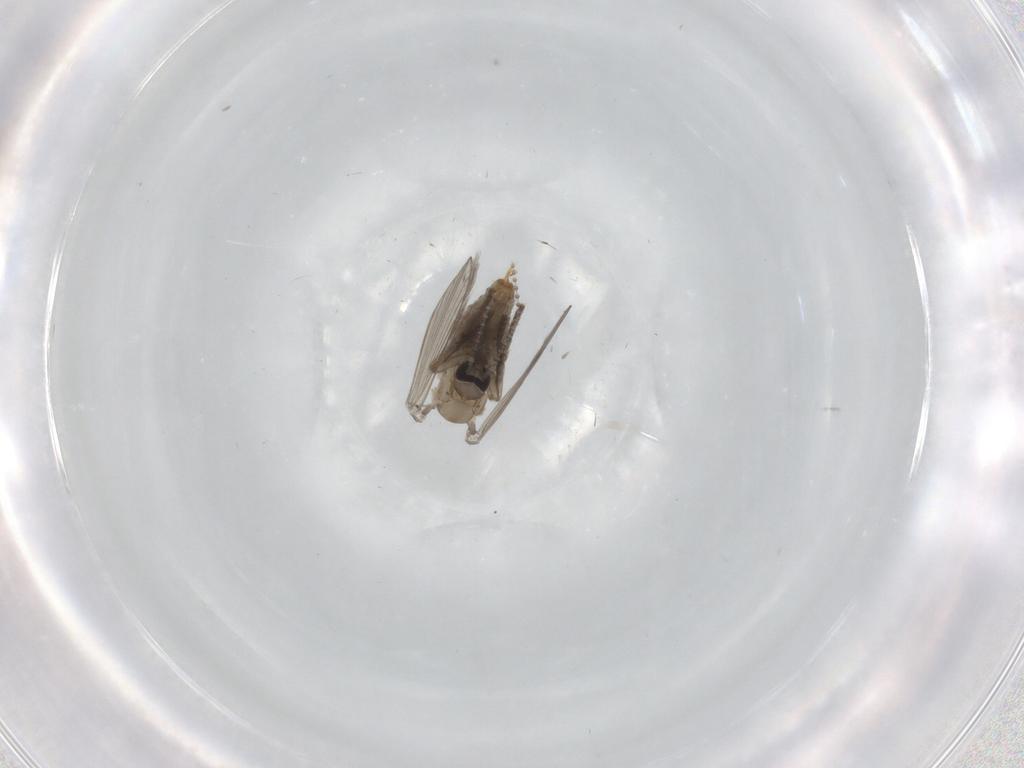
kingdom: Animalia
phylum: Arthropoda
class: Insecta
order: Diptera
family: Psychodidae
